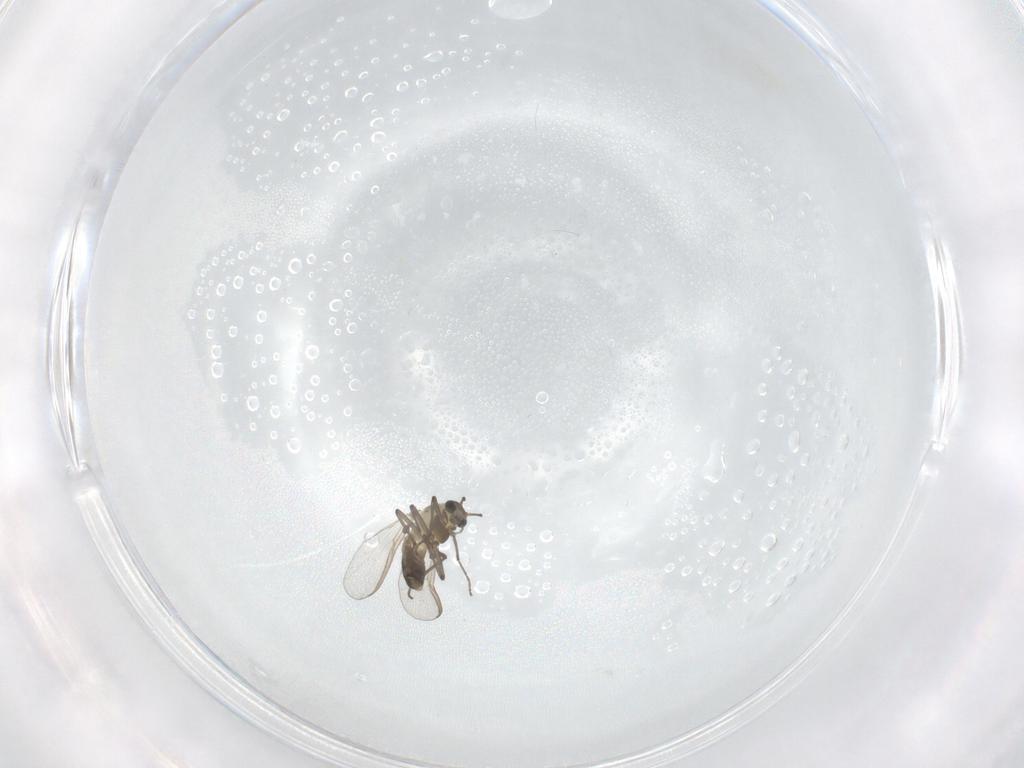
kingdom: Animalia
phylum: Arthropoda
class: Insecta
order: Diptera
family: Chironomidae
